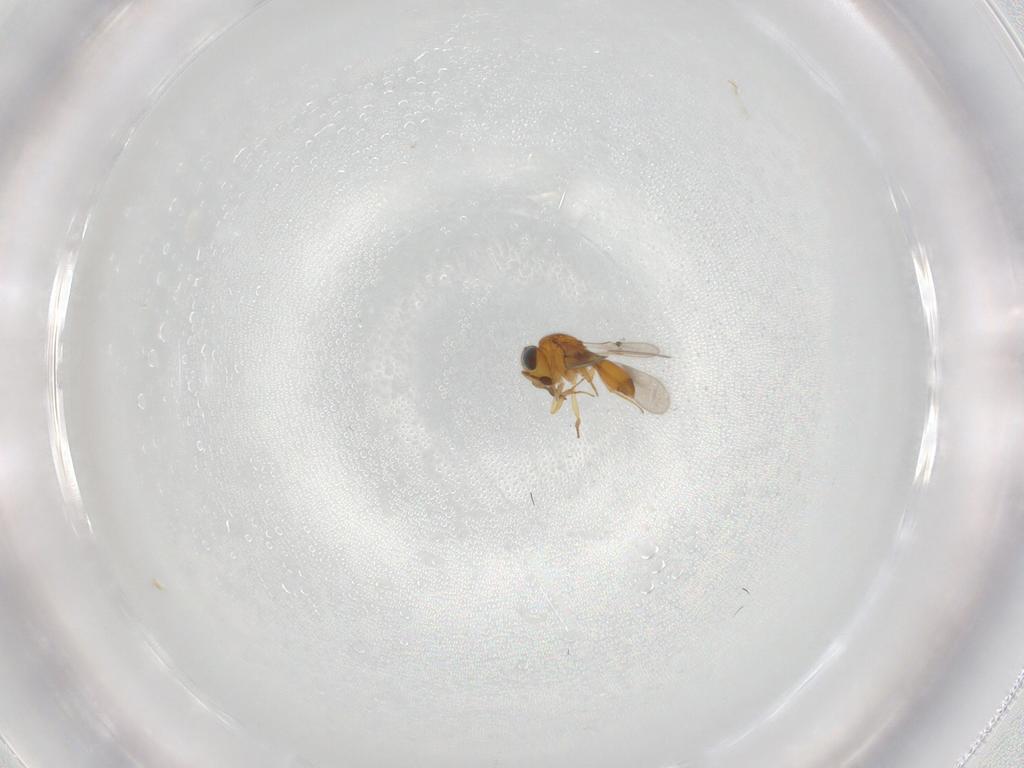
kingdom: Animalia
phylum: Arthropoda
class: Insecta
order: Hymenoptera
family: Scelionidae
